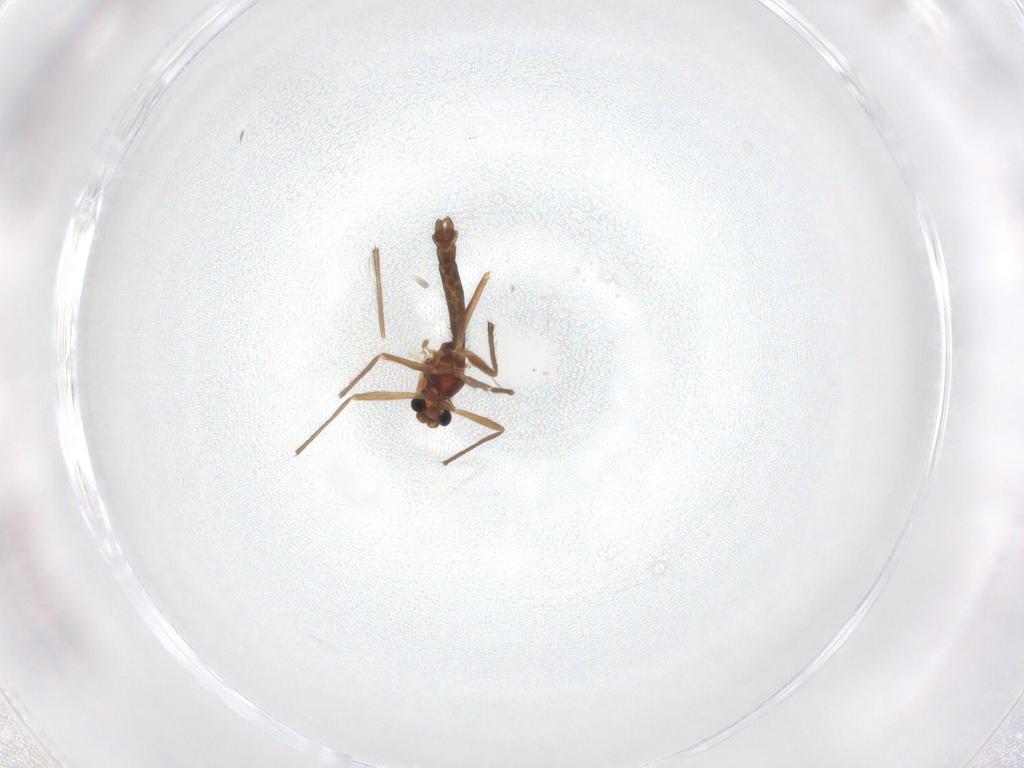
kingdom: Animalia
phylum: Arthropoda
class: Insecta
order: Diptera
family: Chironomidae
